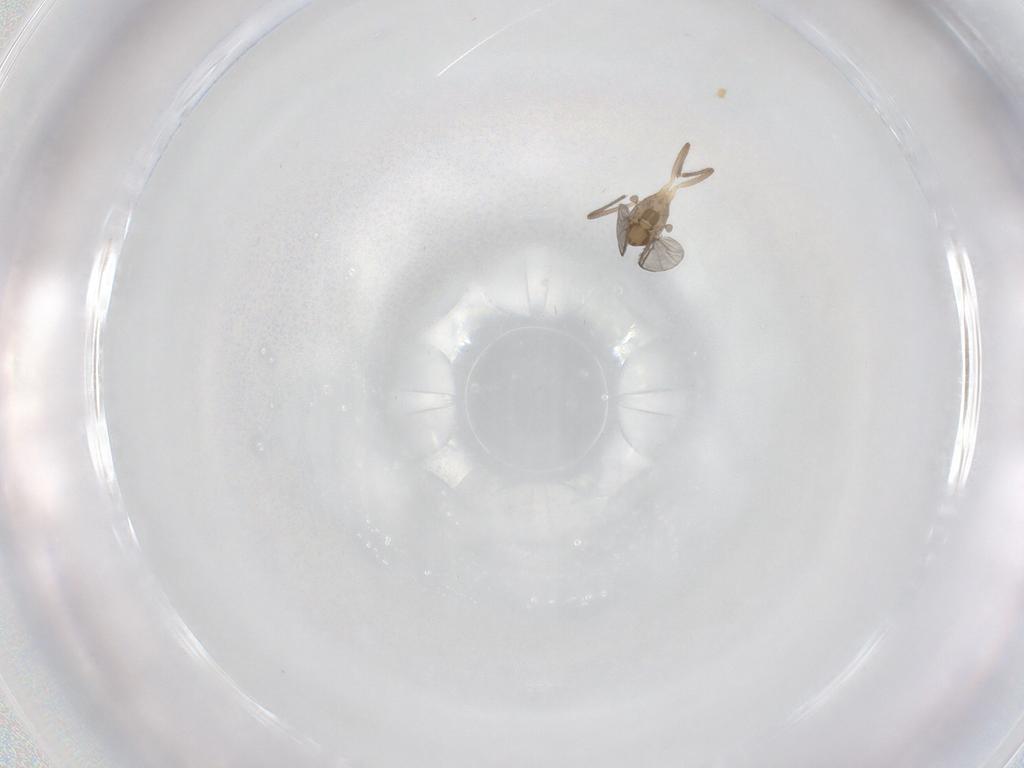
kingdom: Animalia
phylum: Arthropoda
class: Insecta
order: Diptera
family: Chironomidae
